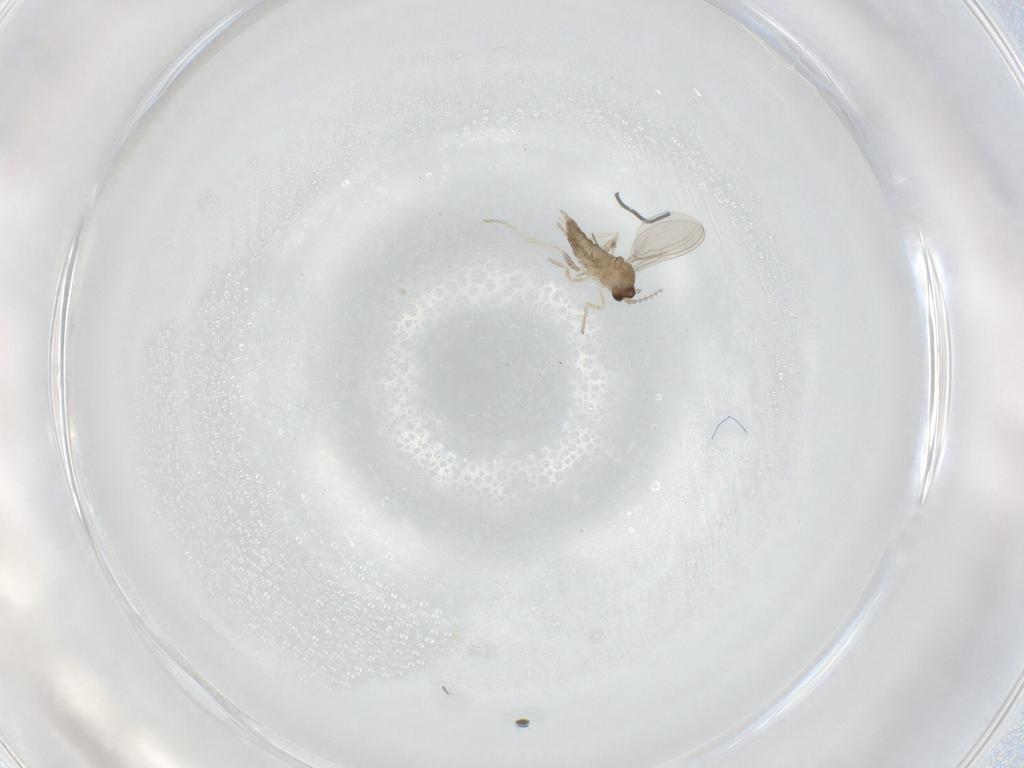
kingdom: Animalia
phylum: Arthropoda
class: Insecta
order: Diptera
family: Cecidomyiidae
